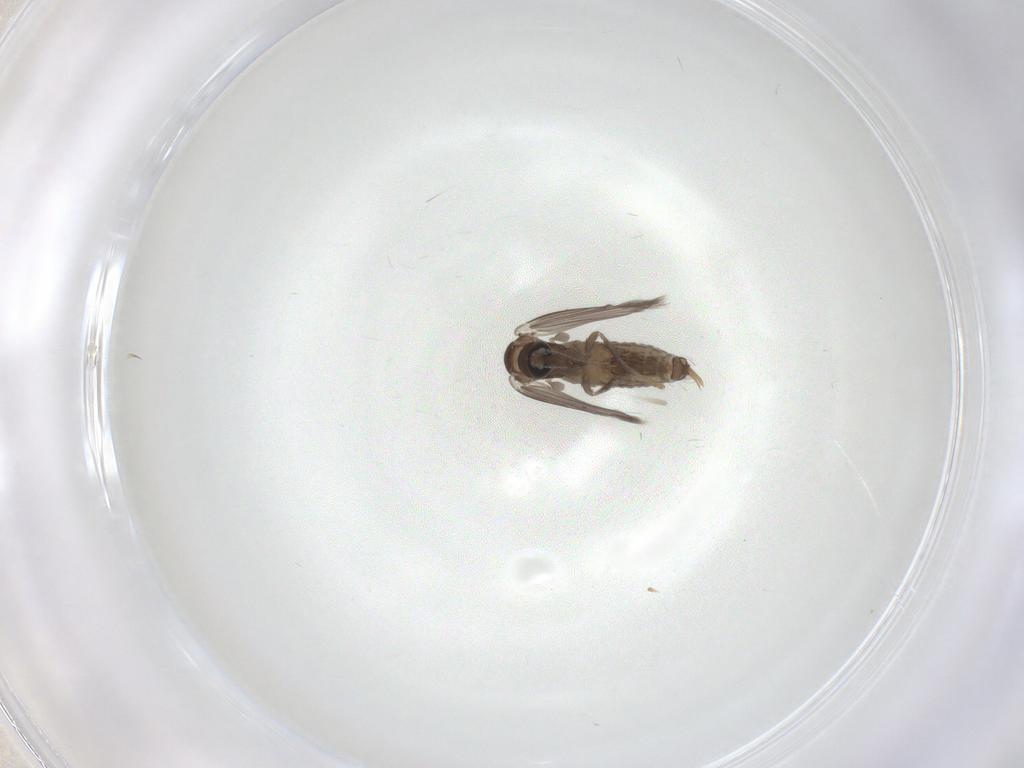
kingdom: Animalia
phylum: Arthropoda
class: Insecta
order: Diptera
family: Psychodidae
